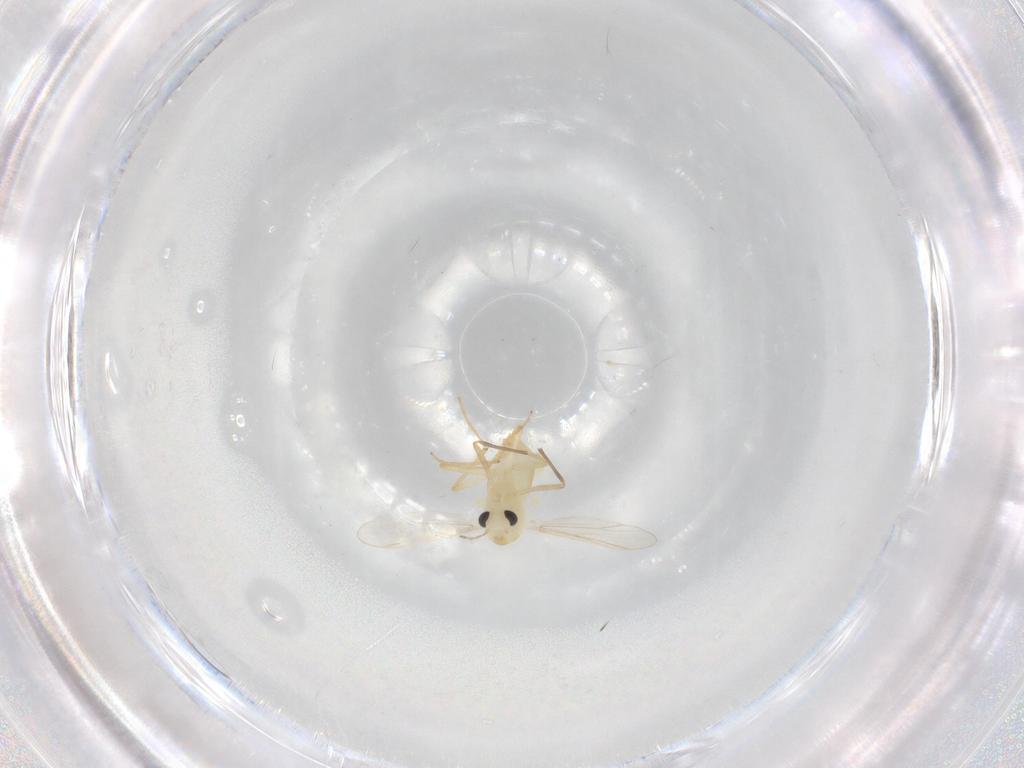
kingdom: Animalia
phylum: Arthropoda
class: Insecta
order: Diptera
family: Chironomidae
